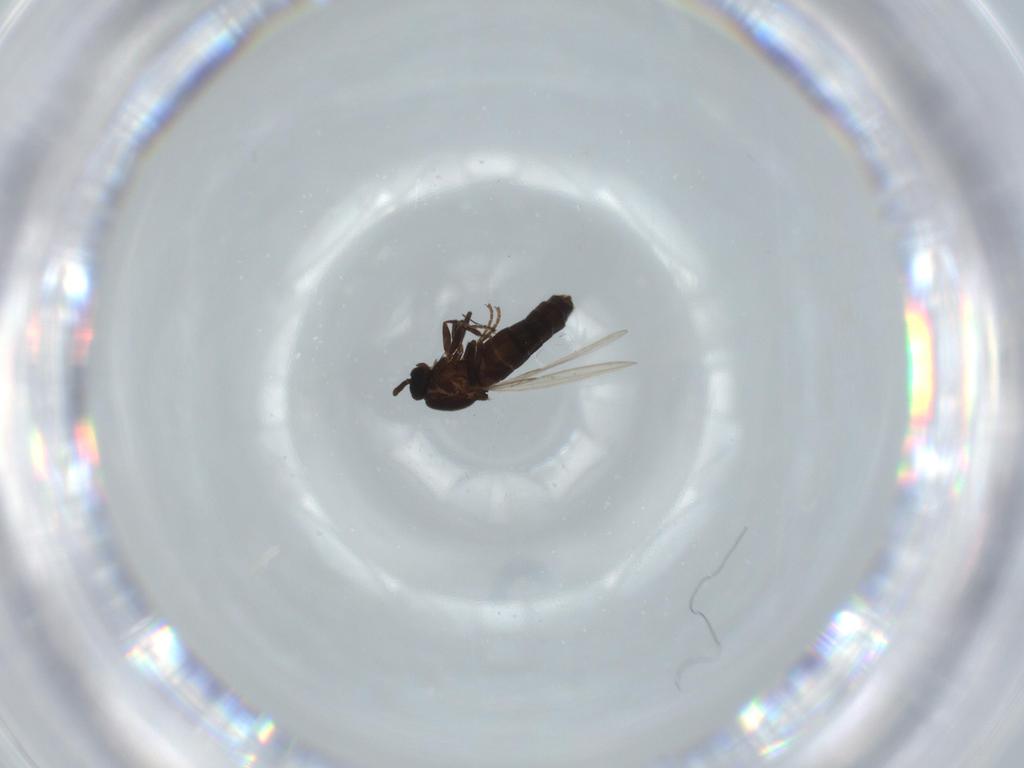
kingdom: Animalia
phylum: Arthropoda
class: Insecta
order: Diptera
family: Scatopsidae
